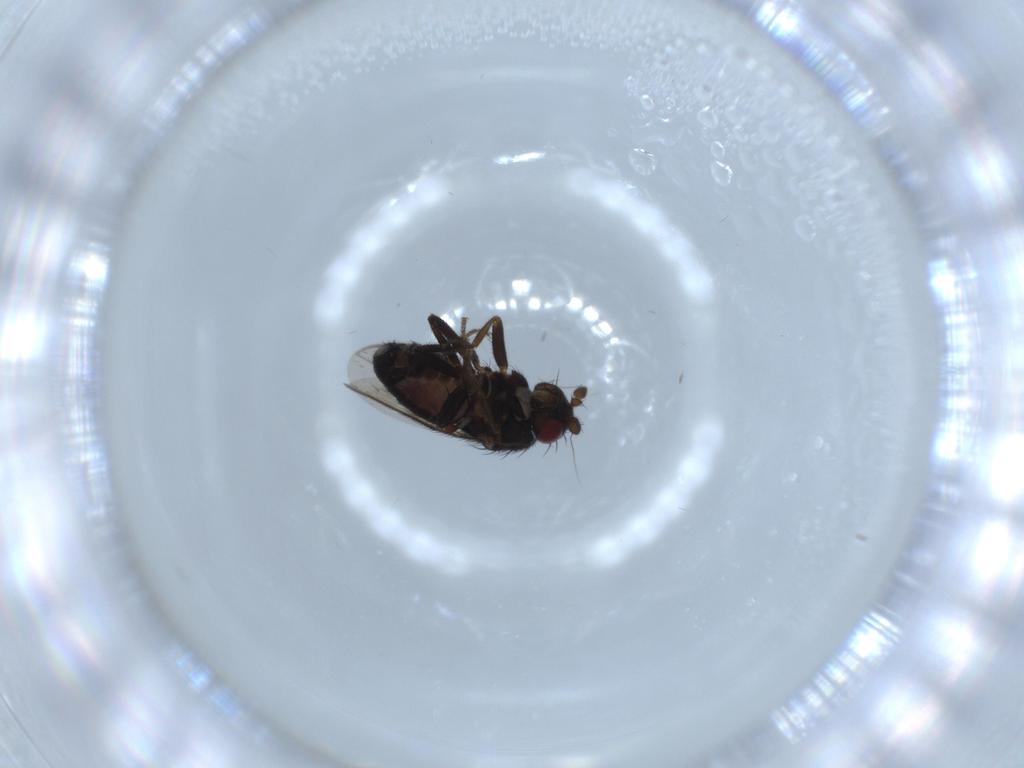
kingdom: Animalia
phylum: Arthropoda
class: Insecta
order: Diptera
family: Sphaeroceridae
